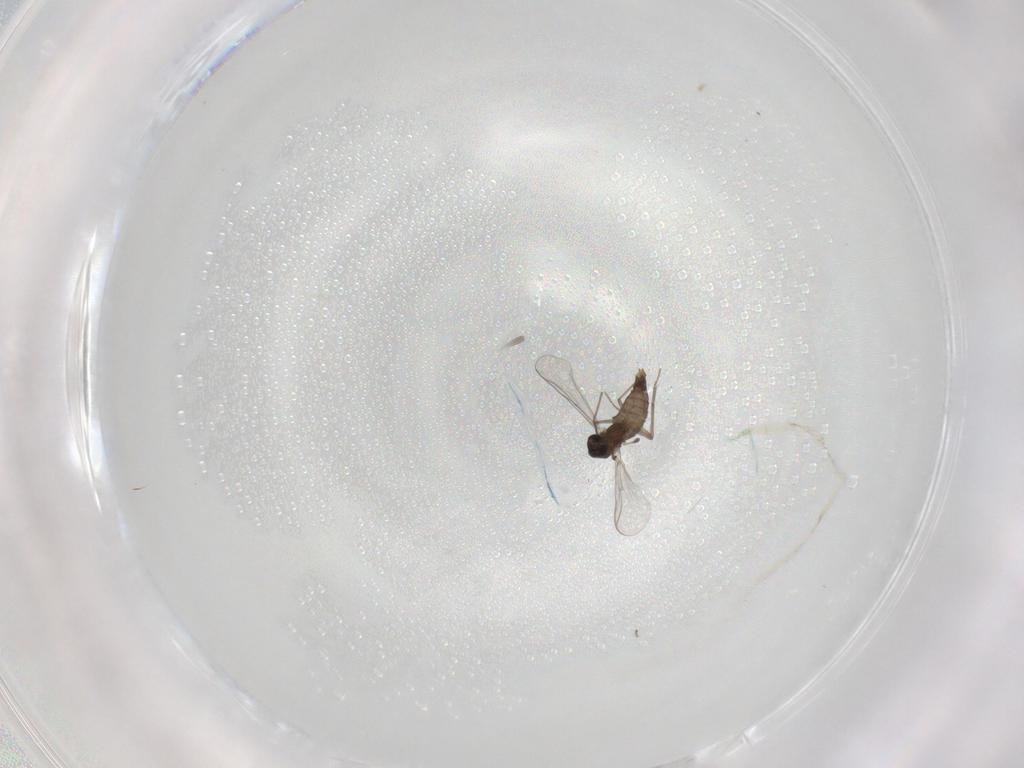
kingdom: Animalia
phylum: Arthropoda
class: Insecta
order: Diptera
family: Chironomidae
